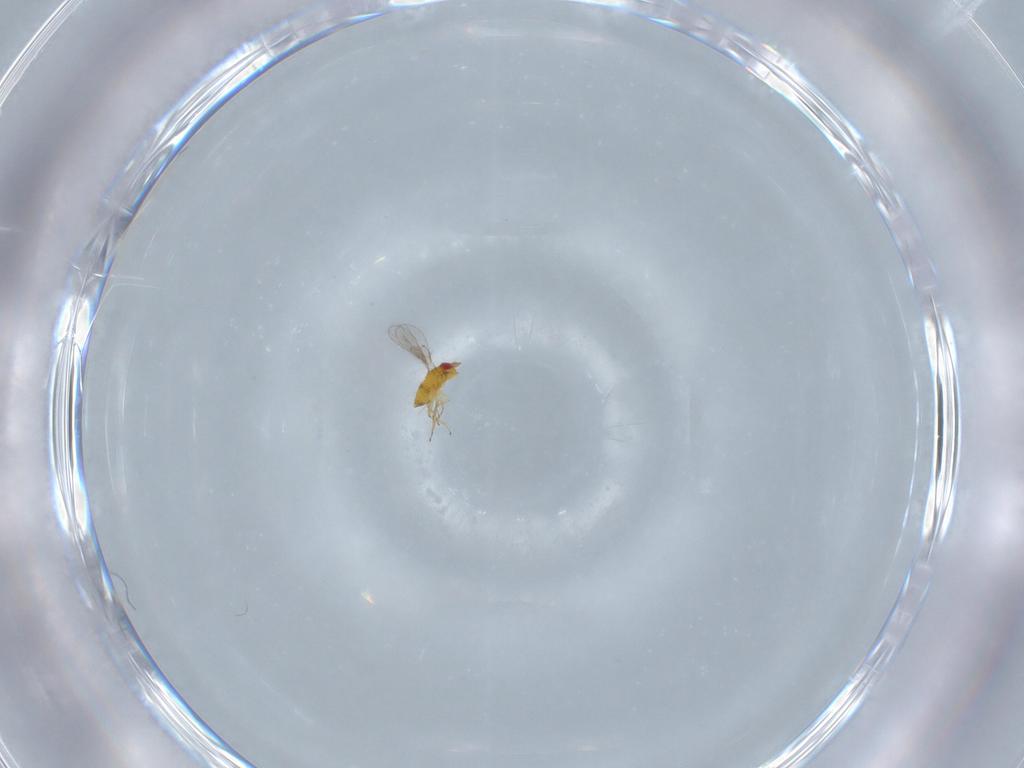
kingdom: Animalia
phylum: Arthropoda
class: Insecta
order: Hymenoptera
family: Trichogrammatidae
